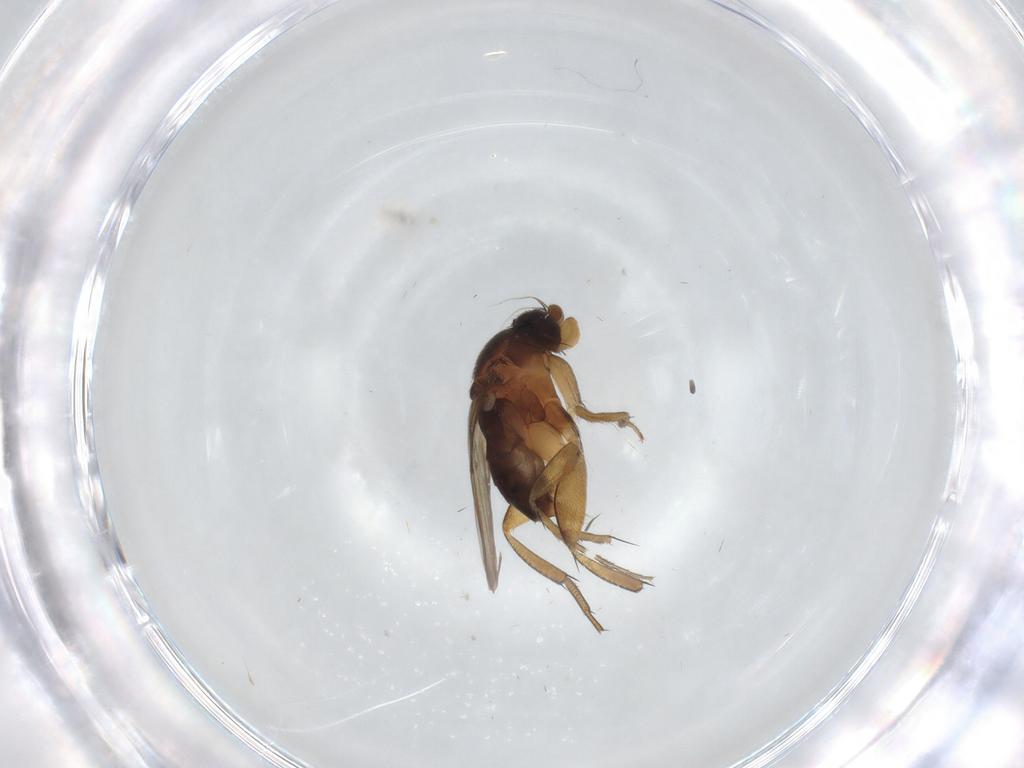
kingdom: Animalia
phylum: Arthropoda
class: Insecta
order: Diptera
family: Phoridae
